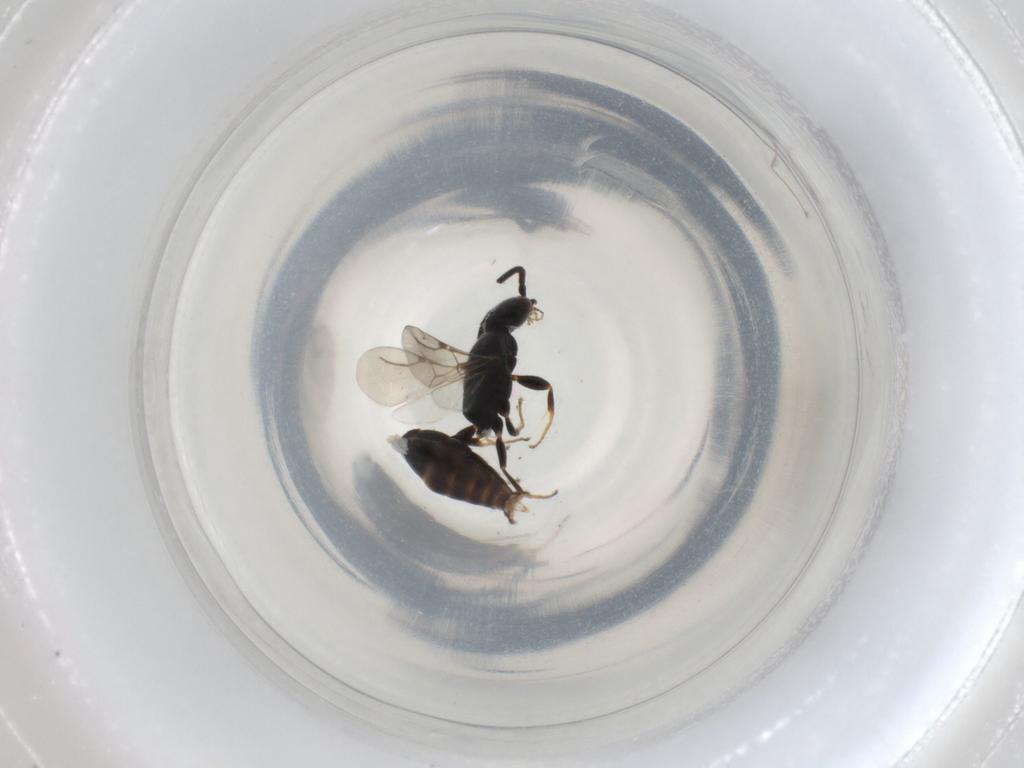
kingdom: Animalia
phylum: Arthropoda
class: Insecta
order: Hymenoptera
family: Bethylidae
